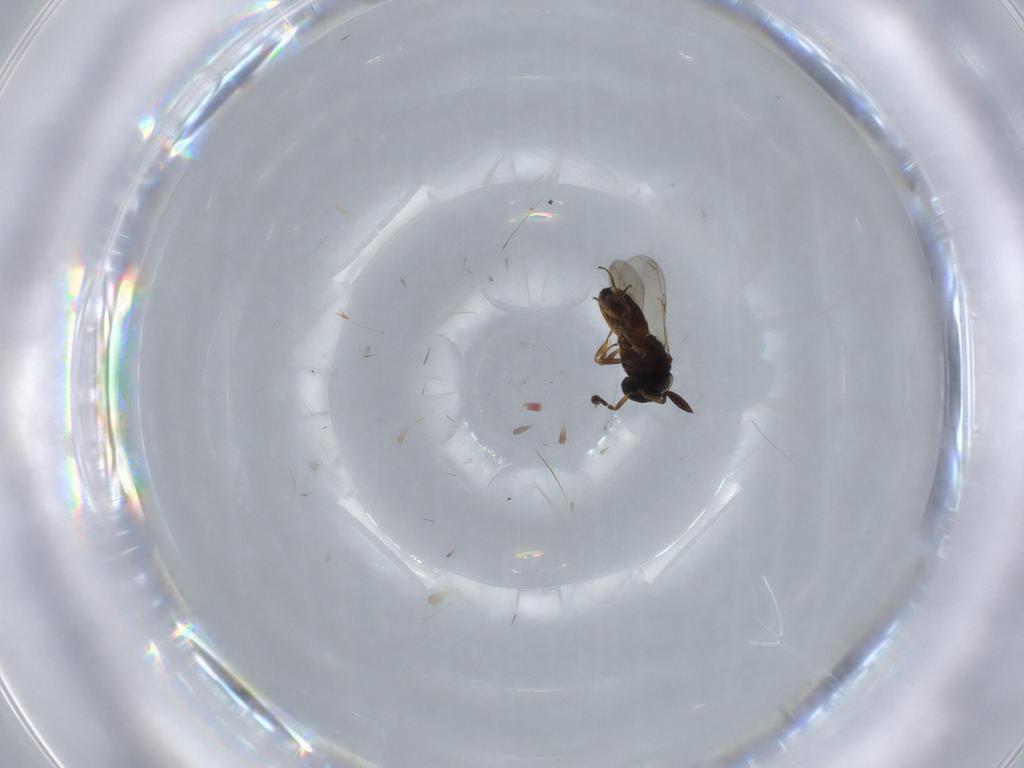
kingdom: Animalia
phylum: Arthropoda
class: Insecta
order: Hymenoptera
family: Scelionidae
